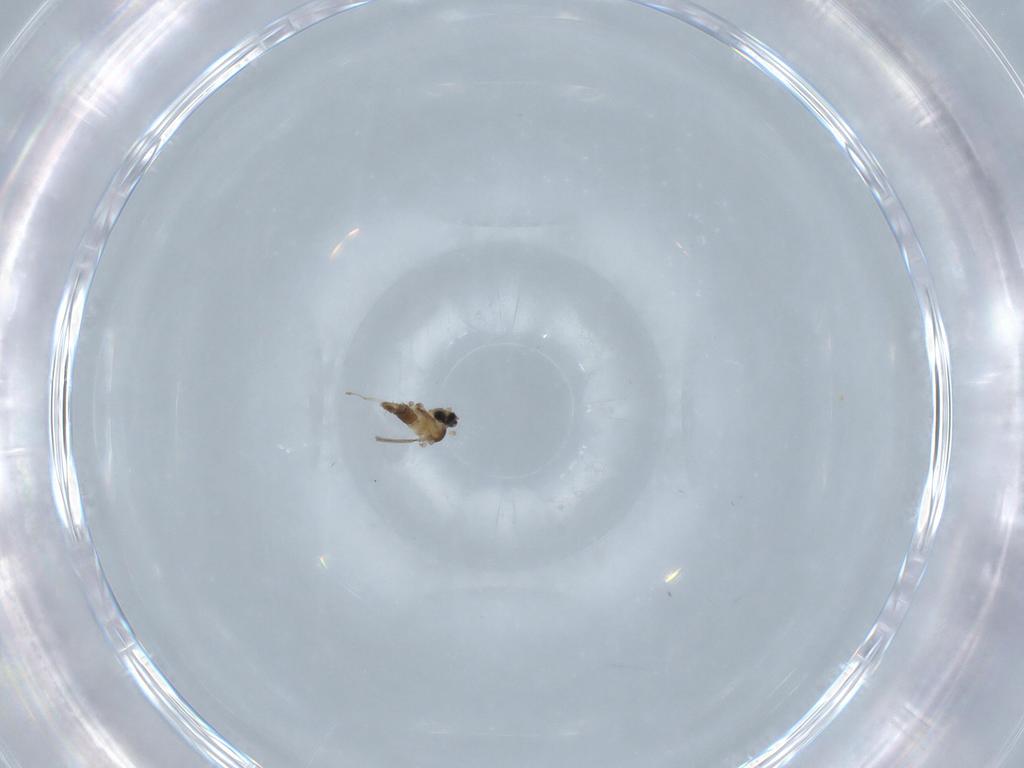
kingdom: Animalia
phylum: Arthropoda
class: Insecta
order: Diptera
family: Cecidomyiidae
